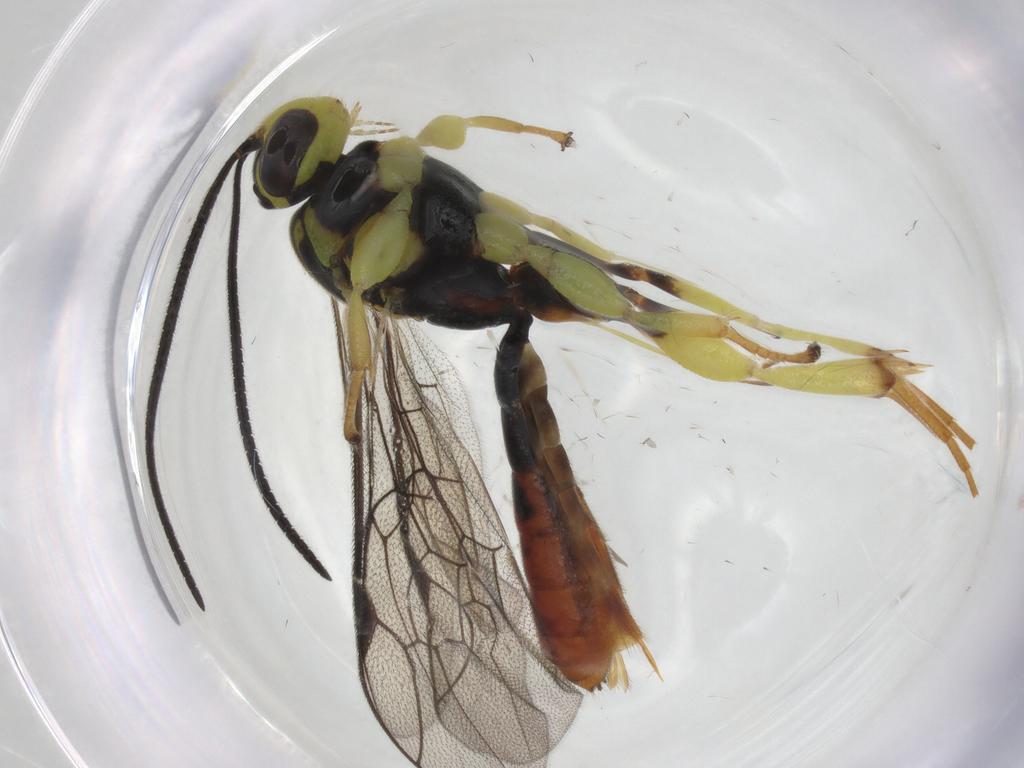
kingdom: Animalia
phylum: Arthropoda
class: Insecta
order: Hymenoptera
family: Ichneumonidae
